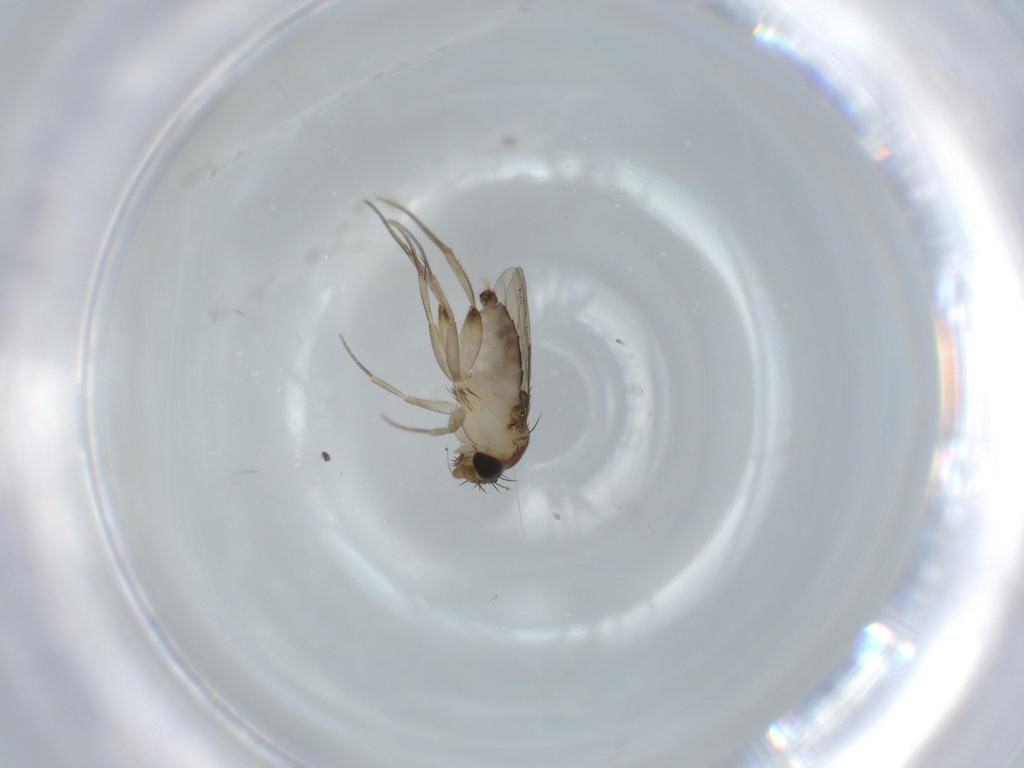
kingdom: Animalia
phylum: Arthropoda
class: Insecta
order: Diptera
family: Phoridae
